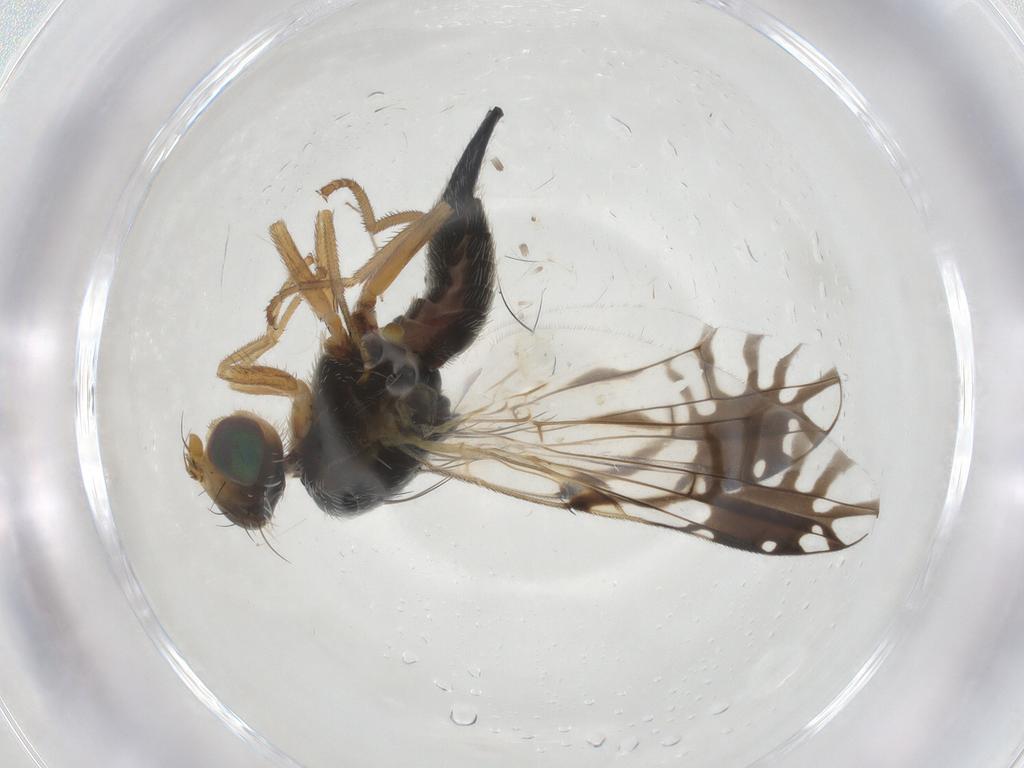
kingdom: Animalia
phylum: Arthropoda
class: Insecta
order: Diptera
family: Tephritidae
